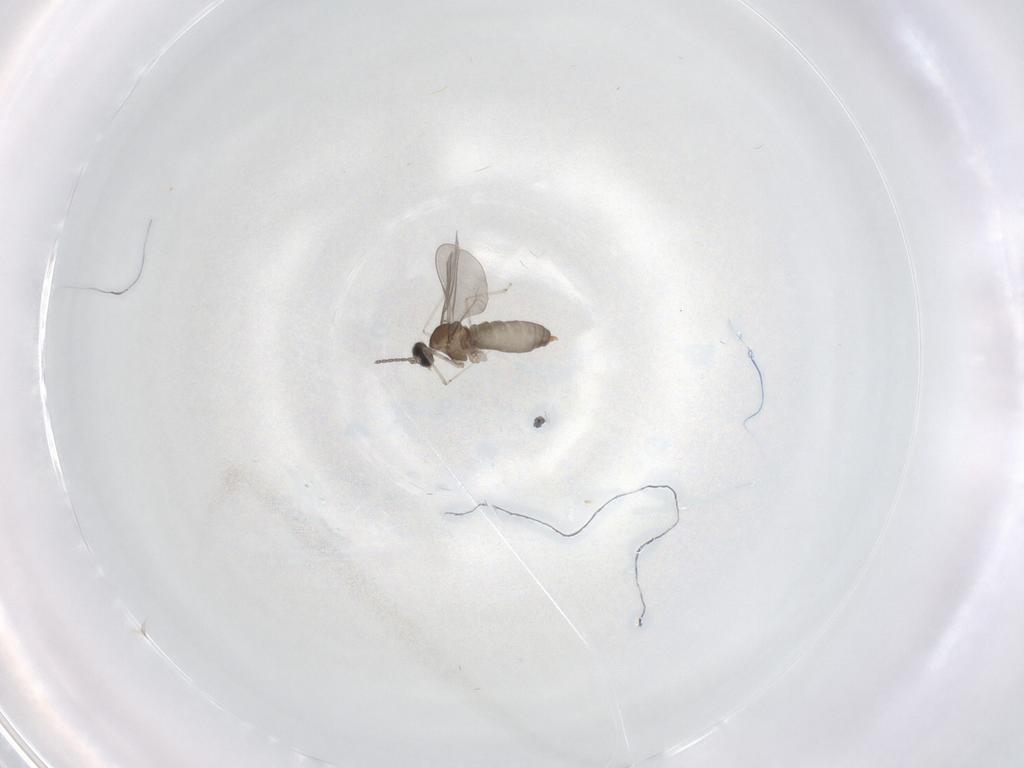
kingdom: Animalia
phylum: Arthropoda
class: Insecta
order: Diptera
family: Cecidomyiidae
